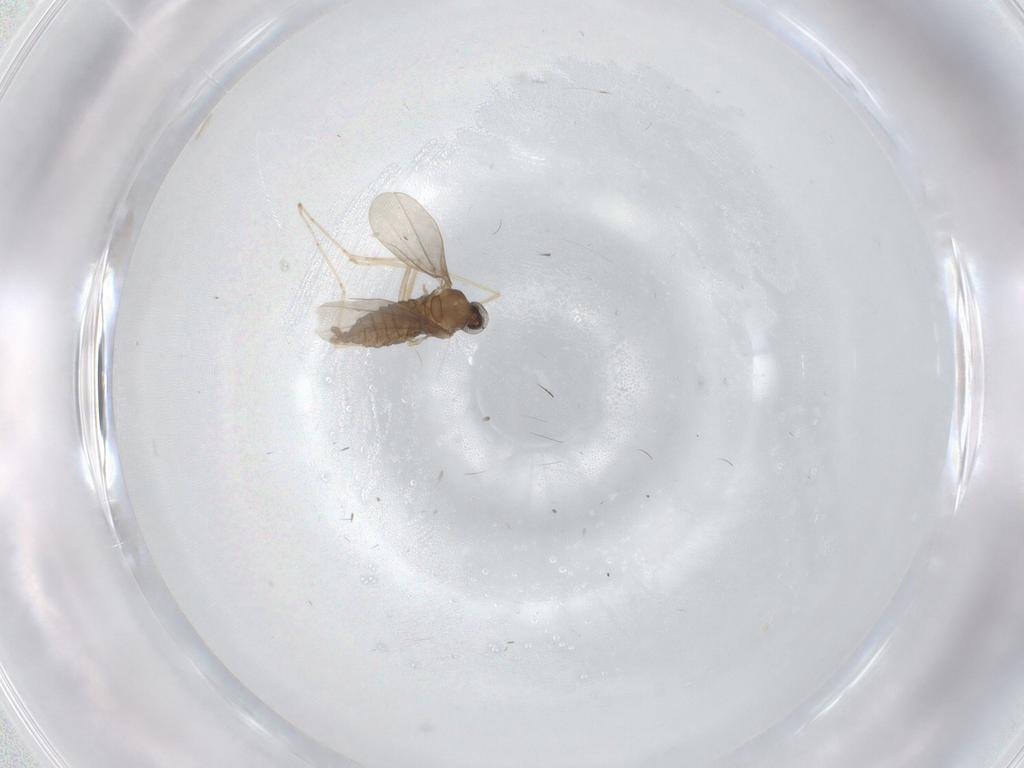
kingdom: Animalia
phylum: Arthropoda
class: Insecta
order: Diptera
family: Cecidomyiidae
